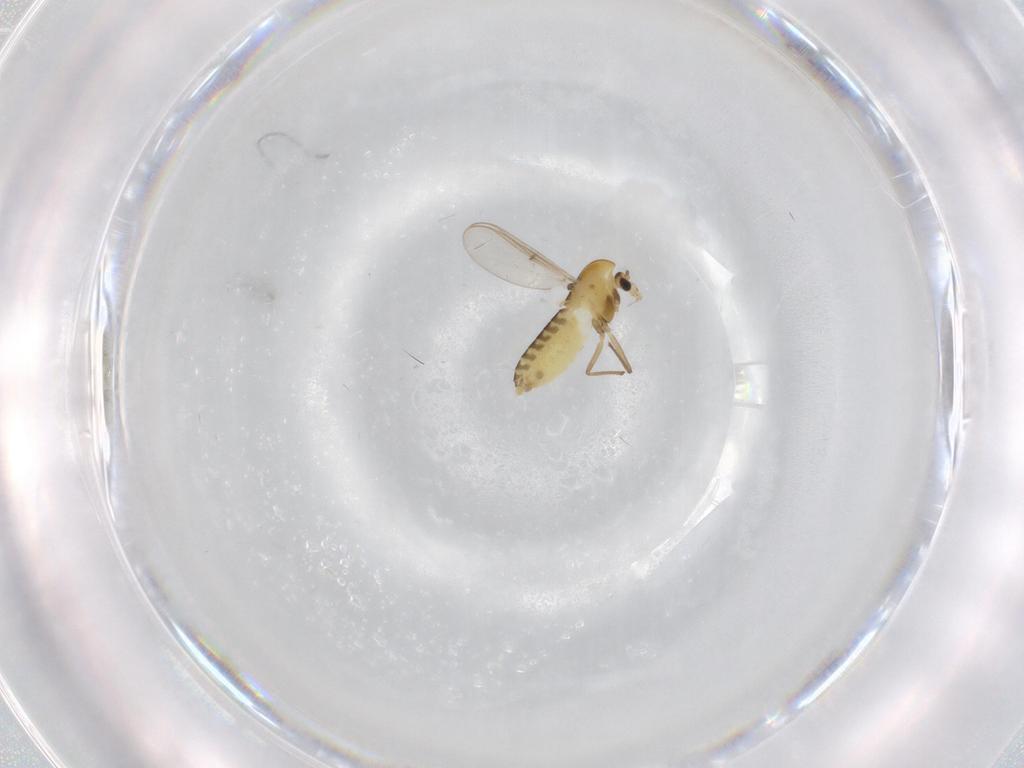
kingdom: Animalia
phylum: Arthropoda
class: Insecta
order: Diptera
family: Chironomidae
